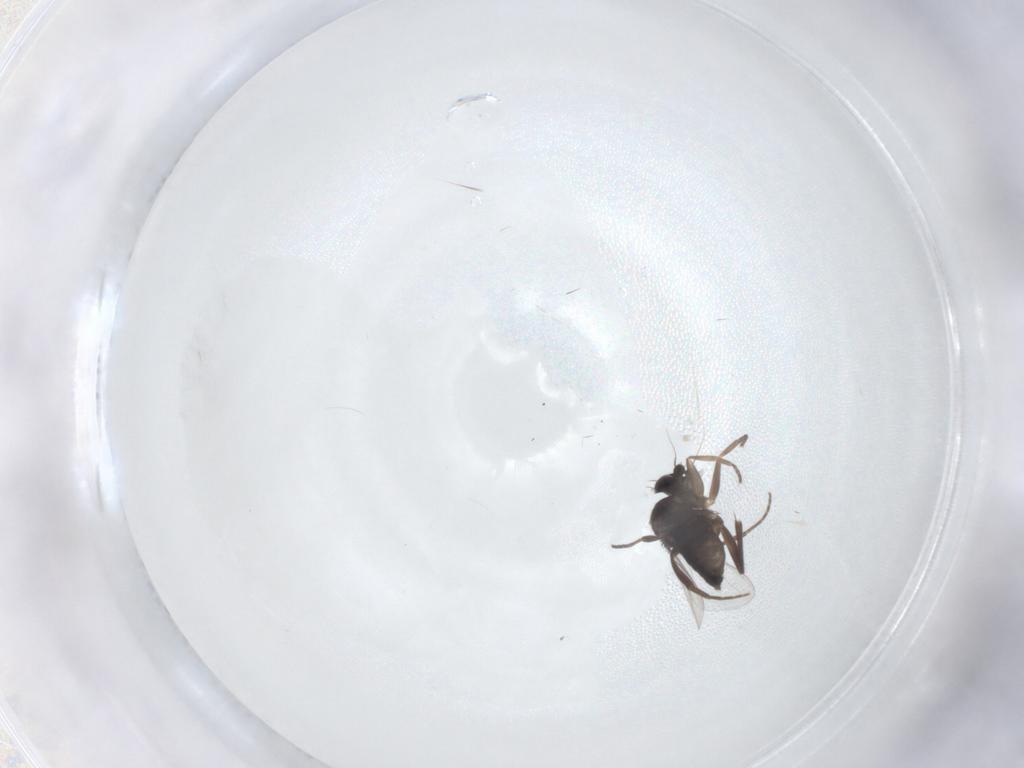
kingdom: Animalia
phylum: Arthropoda
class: Insecta
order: Diptera
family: Phoridae
